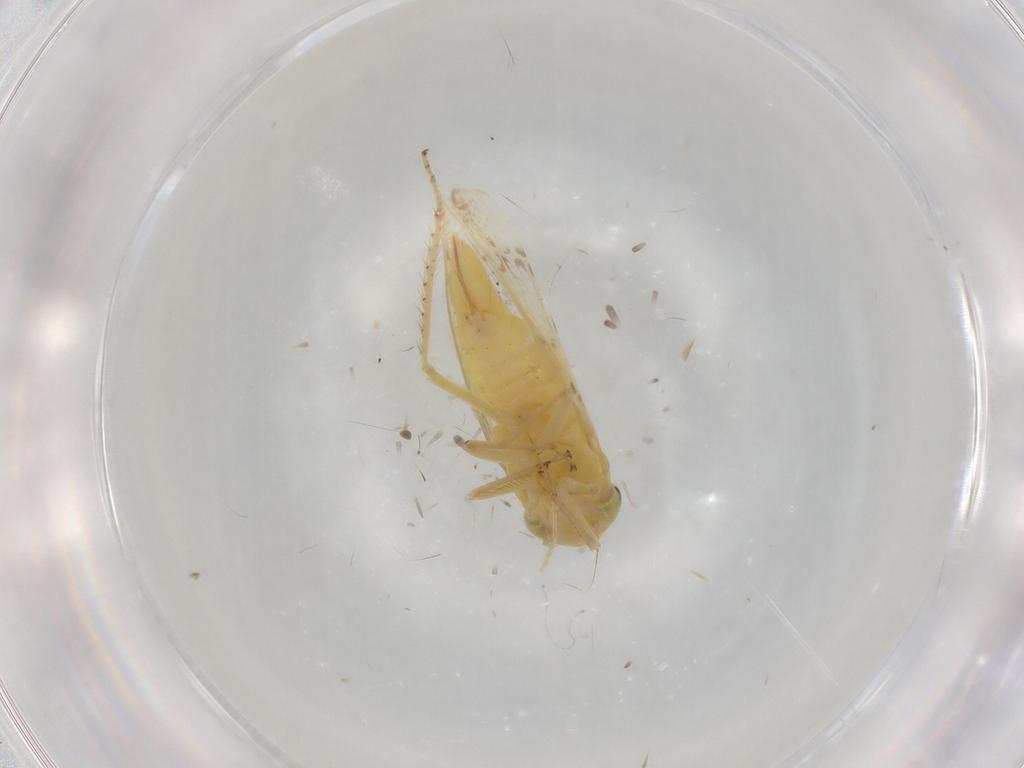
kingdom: Animalia
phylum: Arthropoda
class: Insecta
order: Hemiptera
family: Cicadellidae
